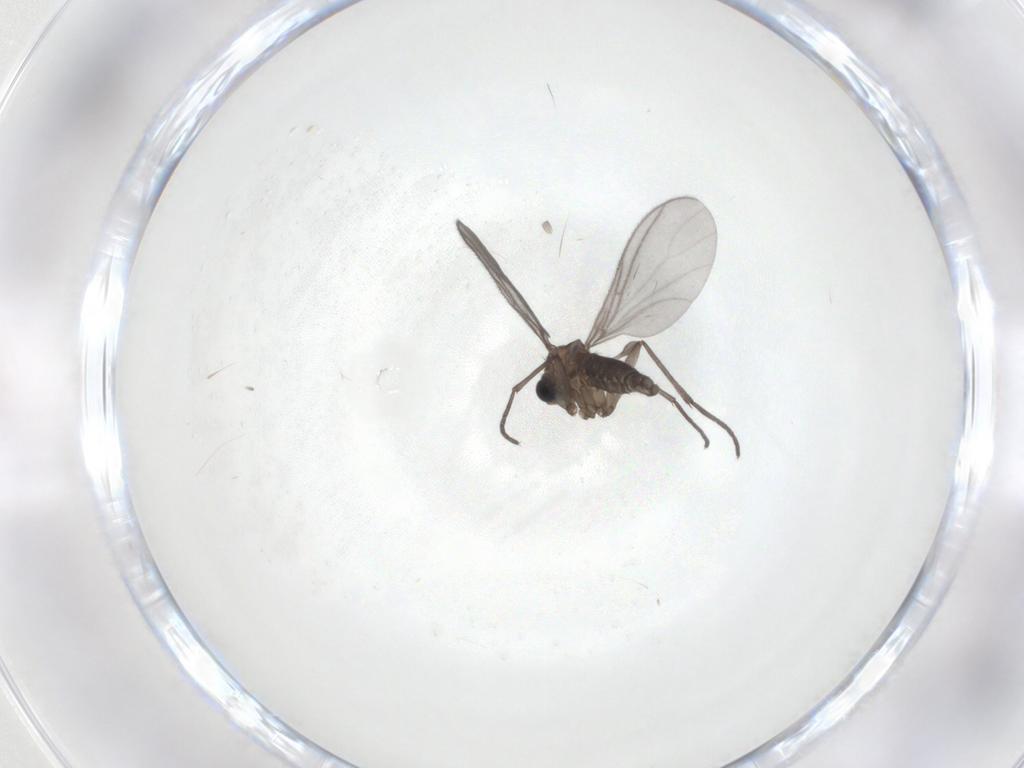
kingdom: Animalia
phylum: Arthropoda
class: Insecta
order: Diptera
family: Sciaridae
